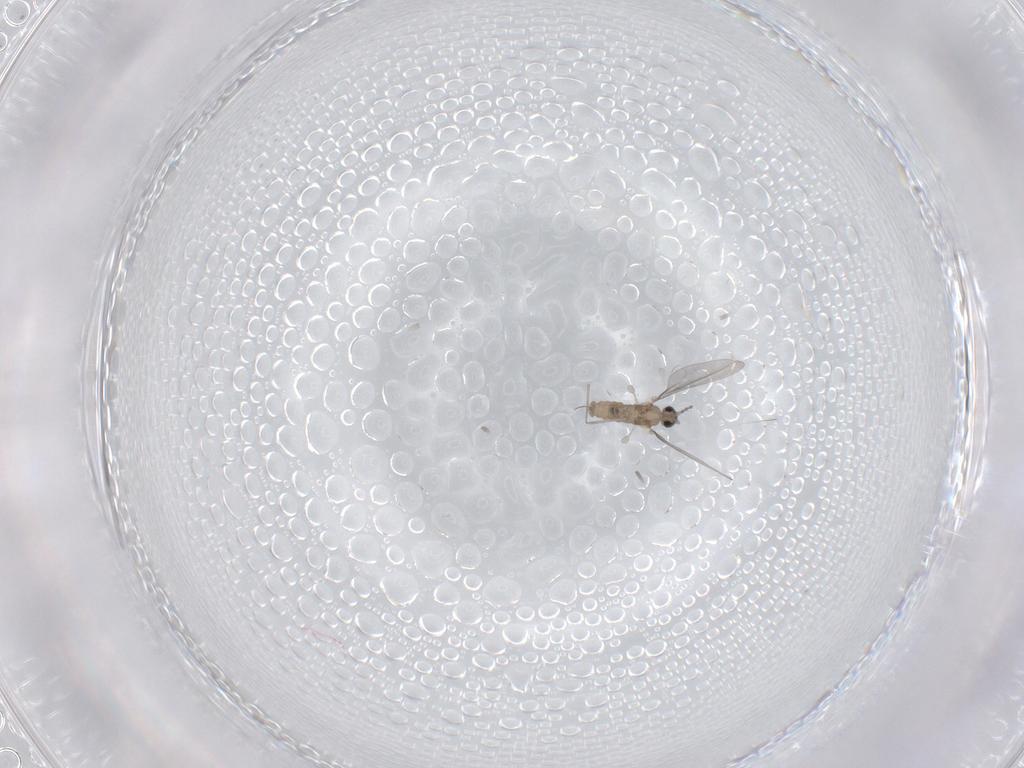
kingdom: Animalia
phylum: Arthropoda
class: Insecta
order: Diptera
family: Cecidomyiidae
